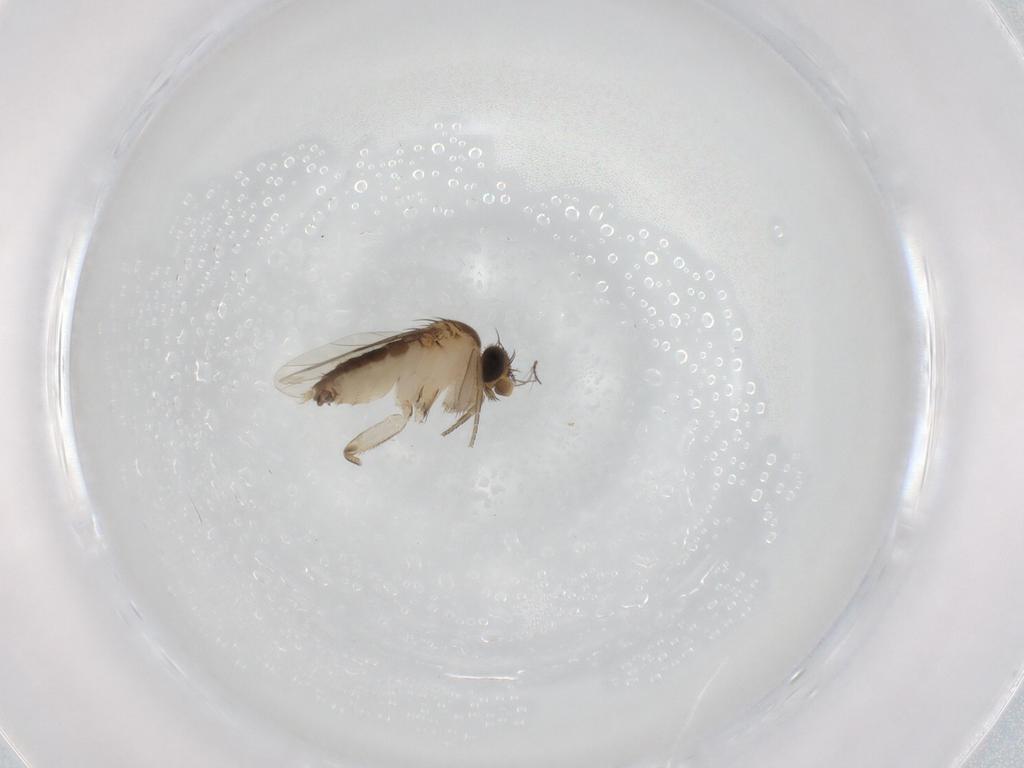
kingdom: Animalia
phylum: Arthropoda
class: Insecta
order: Diptera
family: Phoridae
